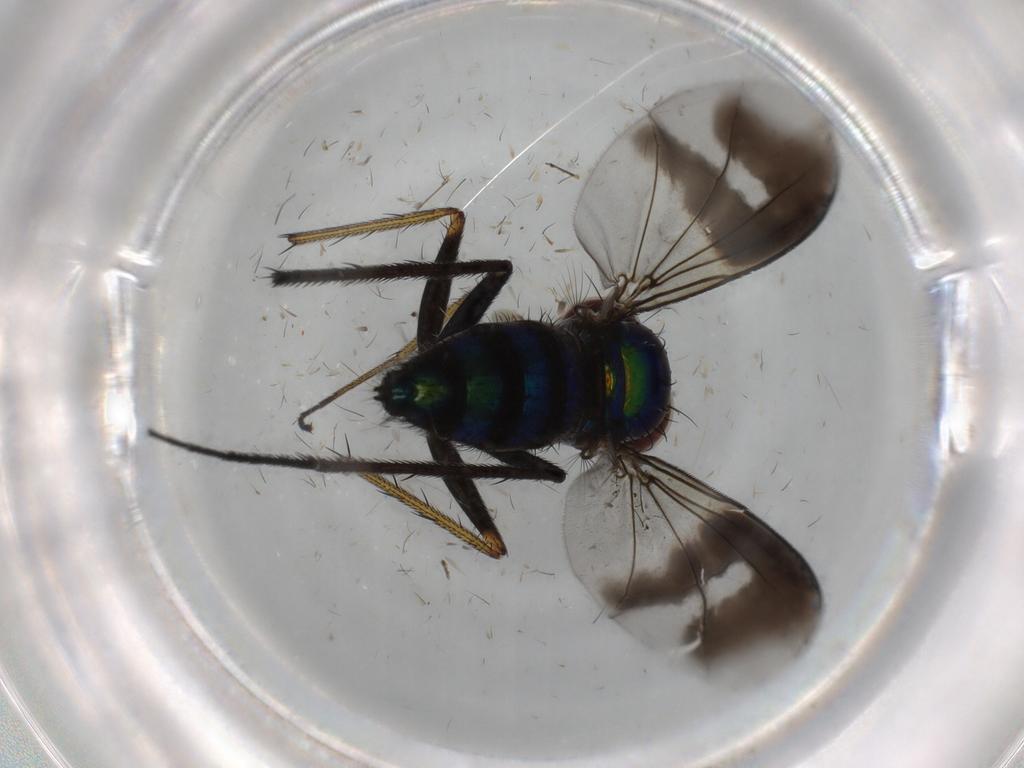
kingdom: Animalia
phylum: Arthropoda
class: Insecta
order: Diptera
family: Dolichopodidae
